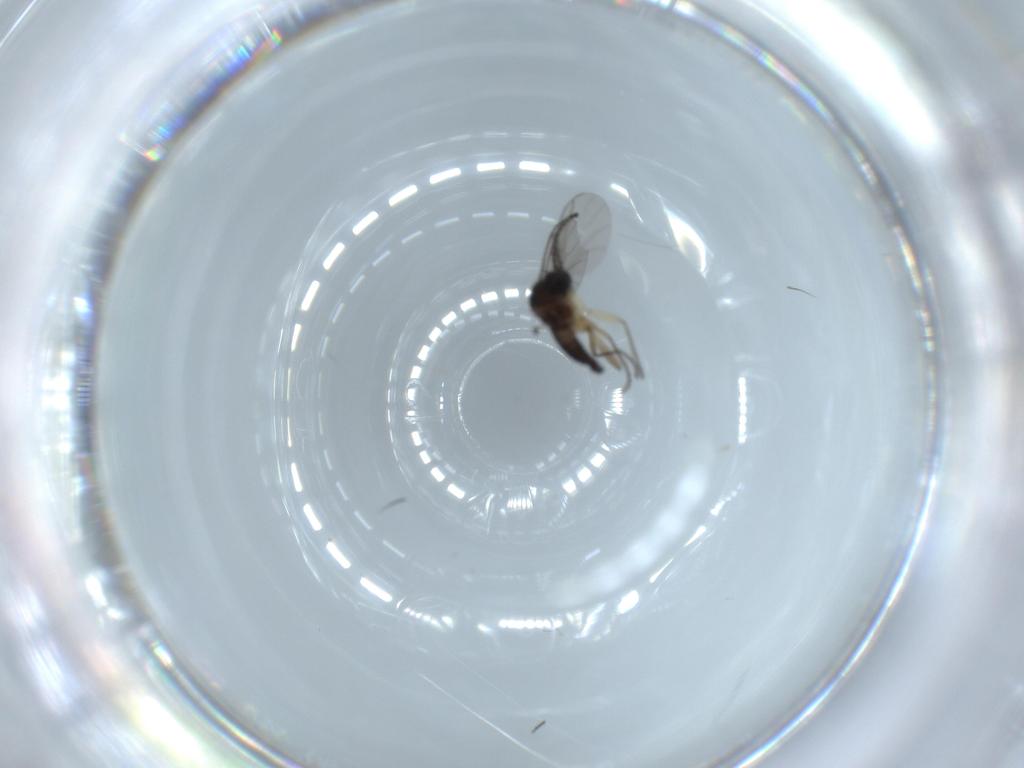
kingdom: Animalia
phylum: Arthropoda
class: Insecta
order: Diptera
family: Sciaridae
